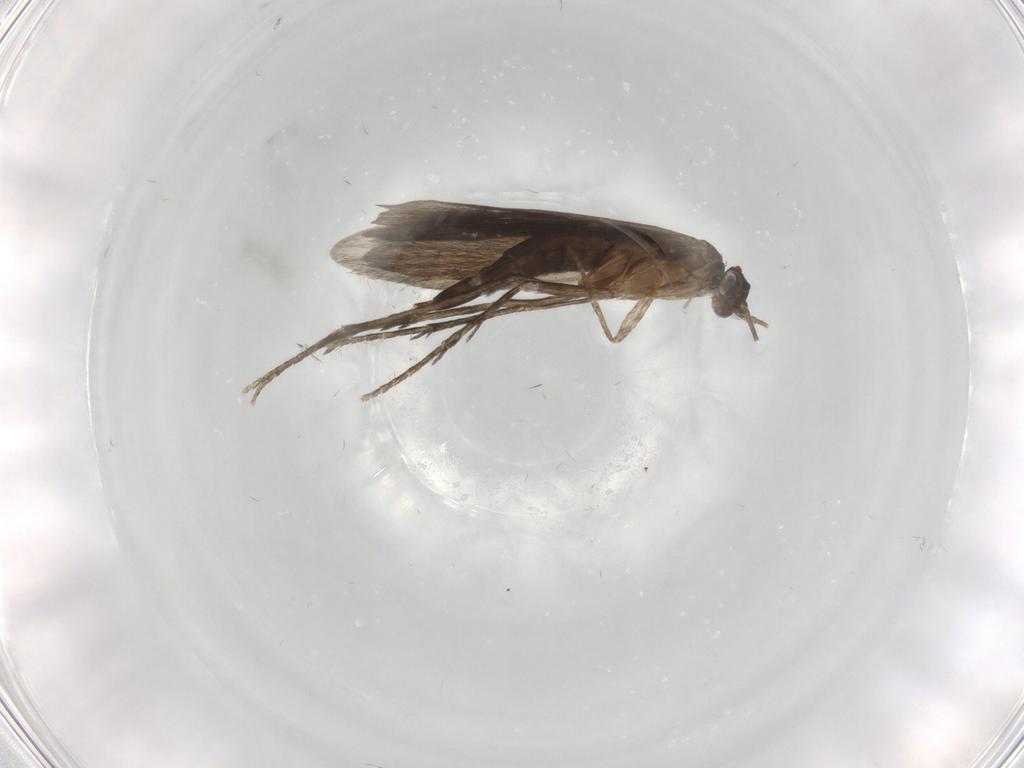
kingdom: Animalia
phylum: Arthropoda
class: Insecta
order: Trichoptera
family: Xiphocentronidae
